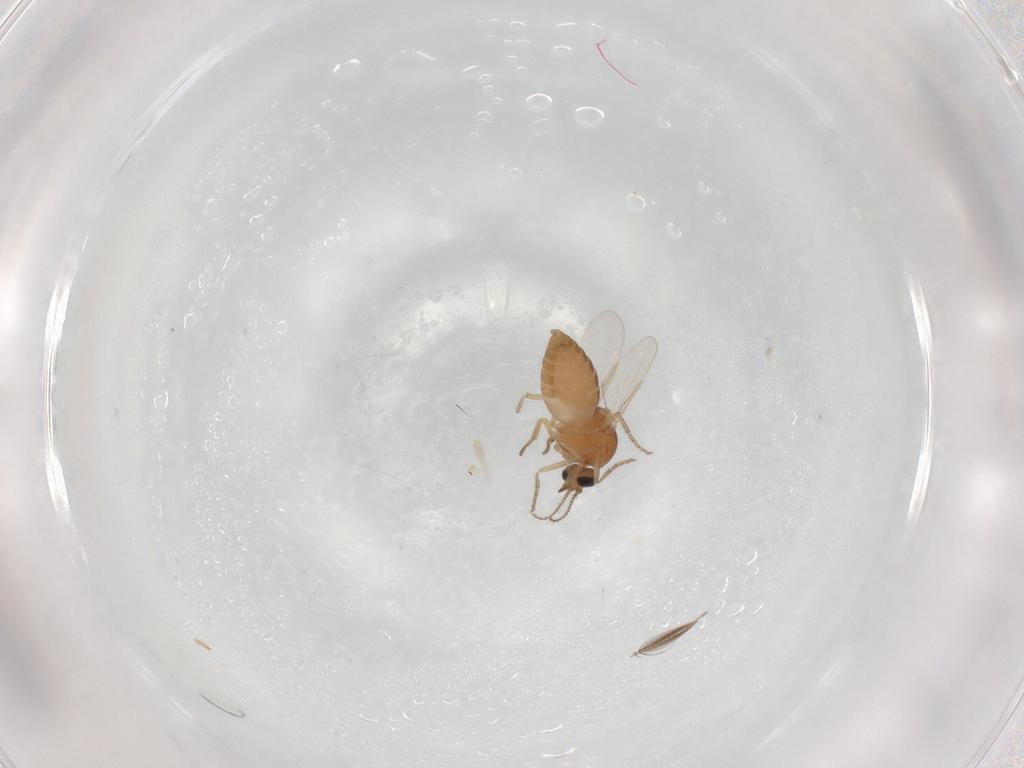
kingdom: Animalia
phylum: Arthropoda
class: Insecta
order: Diptera
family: Ceratopogonidae
